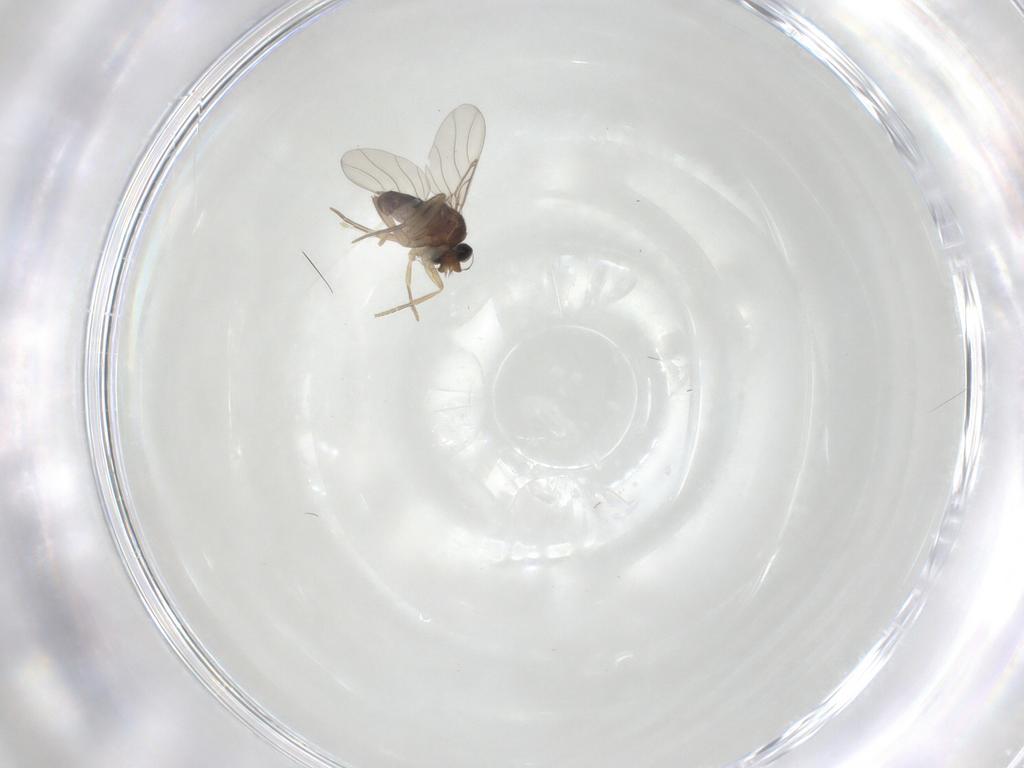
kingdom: Animalia
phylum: Arthropoda
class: Insecta
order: Diptera
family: Phoridae
